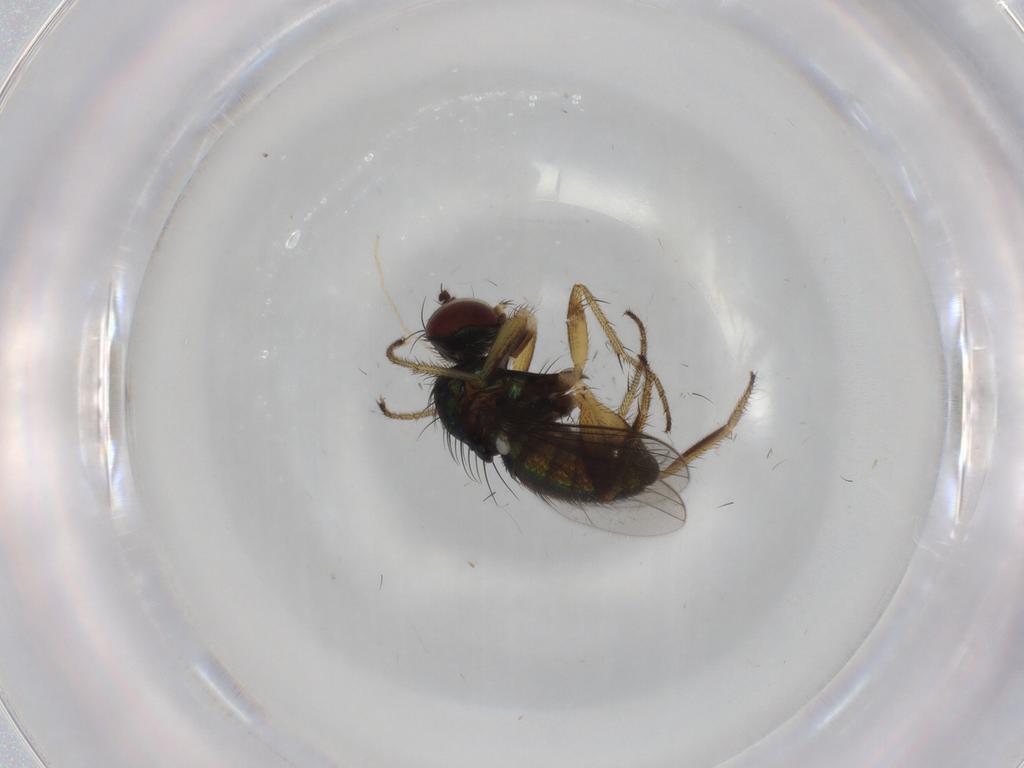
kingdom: Animalia
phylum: Arthropoda
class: Insecta
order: Diptera
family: Dolichopodidae
